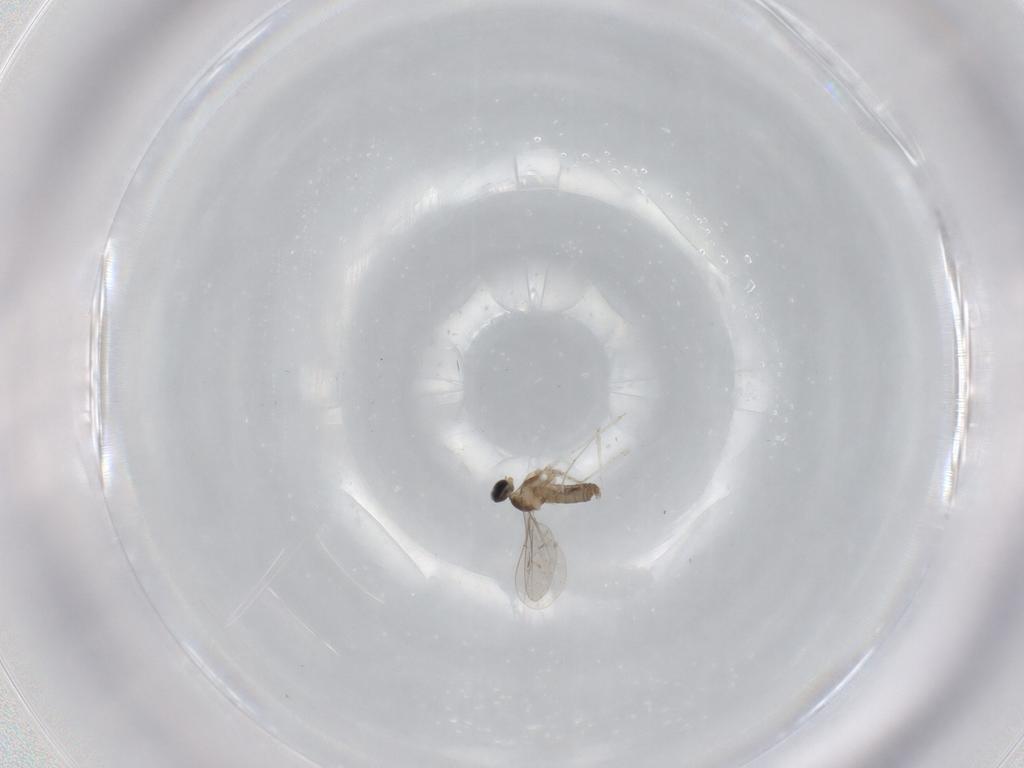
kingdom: Animalia
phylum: Arthropoda
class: Insecta
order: Diptera
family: Cecidomyiidae
